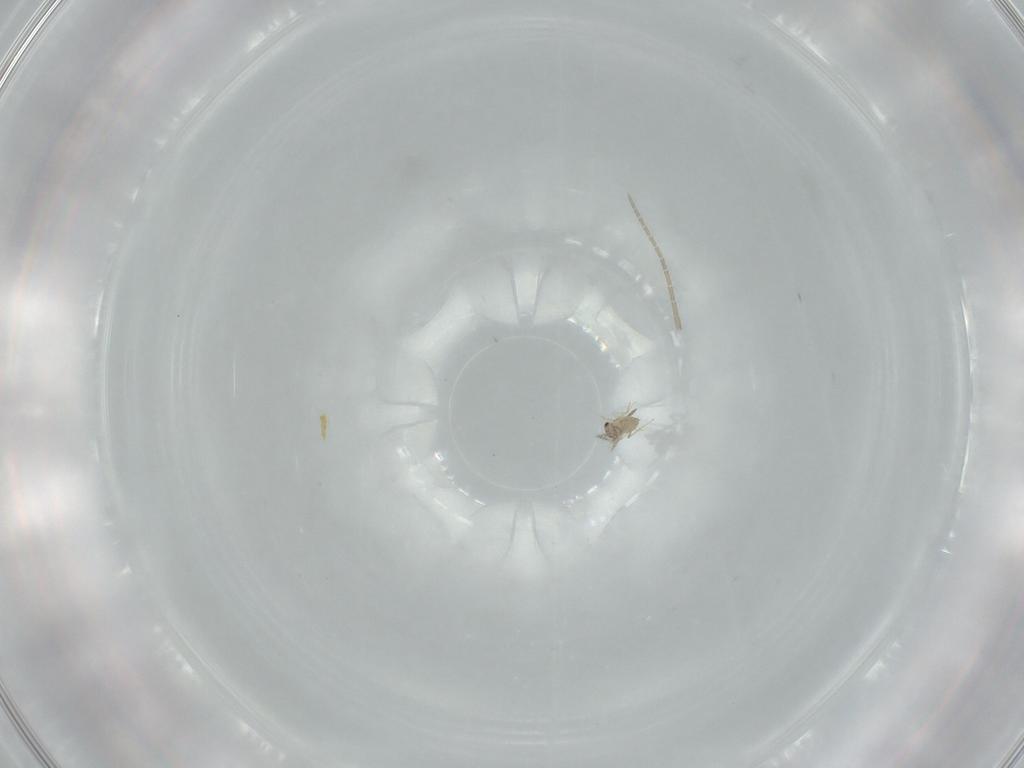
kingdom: Animalia
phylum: Arthropoda
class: Insecta
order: Hymenoptera
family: Mymaridae
